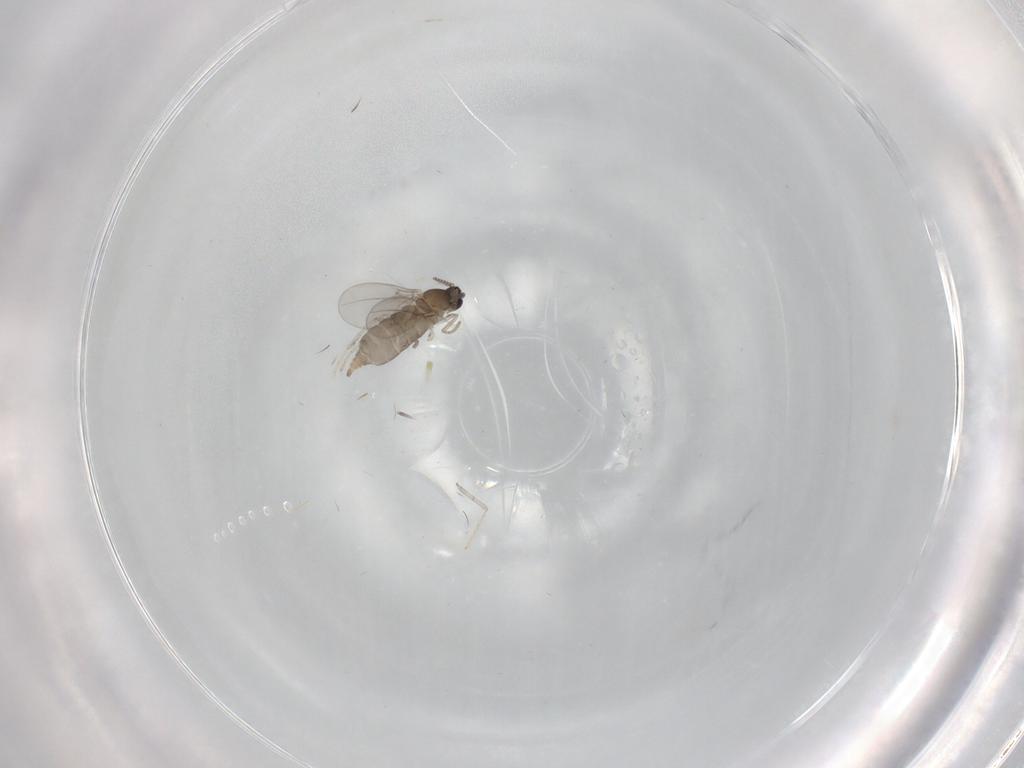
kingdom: Animalia
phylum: Arthropoda
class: Insecta
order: Diptera
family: Cecidomyiidae
